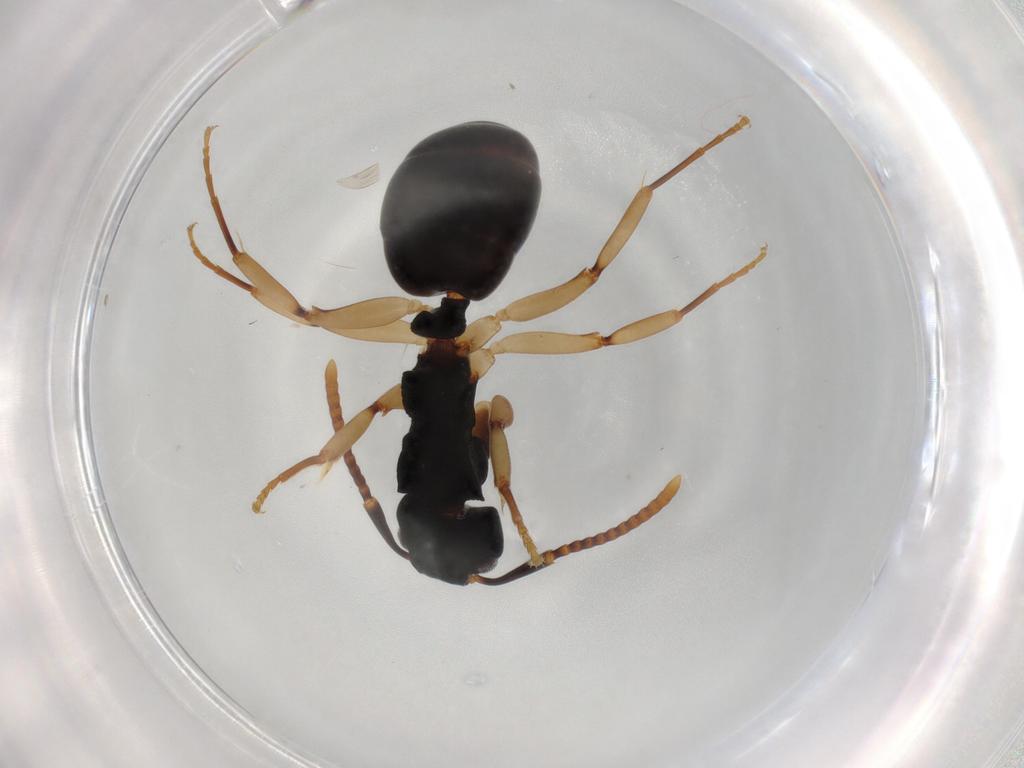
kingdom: Animalia
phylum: Arthropoda
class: Insecta
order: Hymenoptera
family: Formicidae
